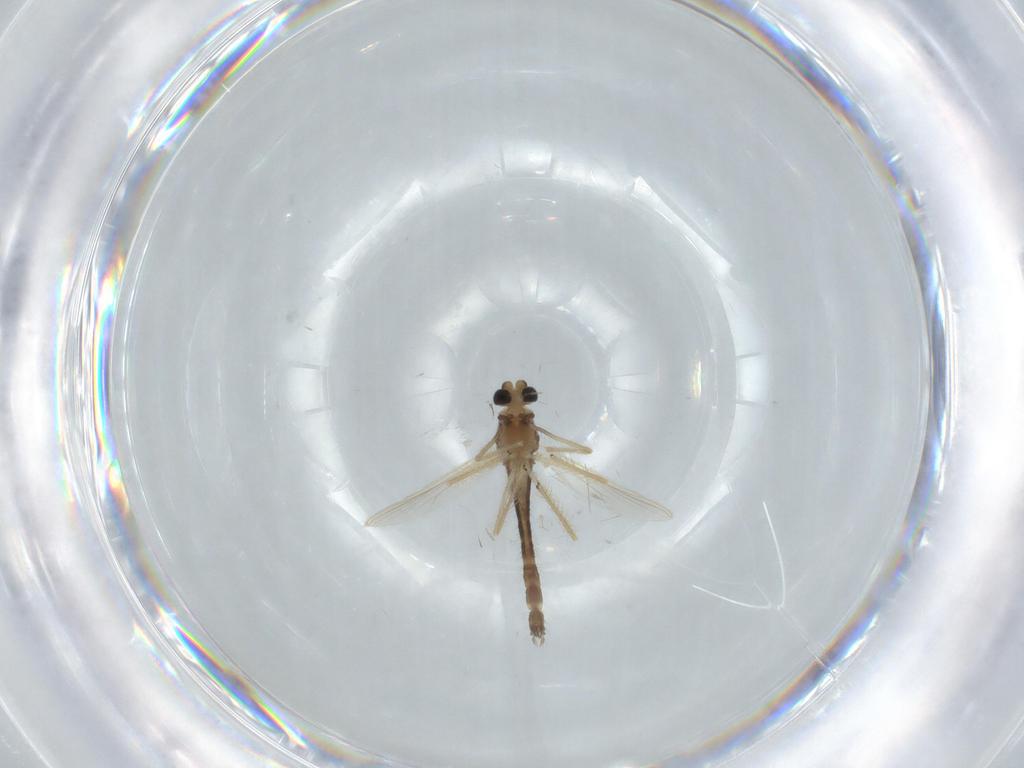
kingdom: Animalia
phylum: Arthropoda
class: Insecta
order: Diptera
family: Chironomidae
